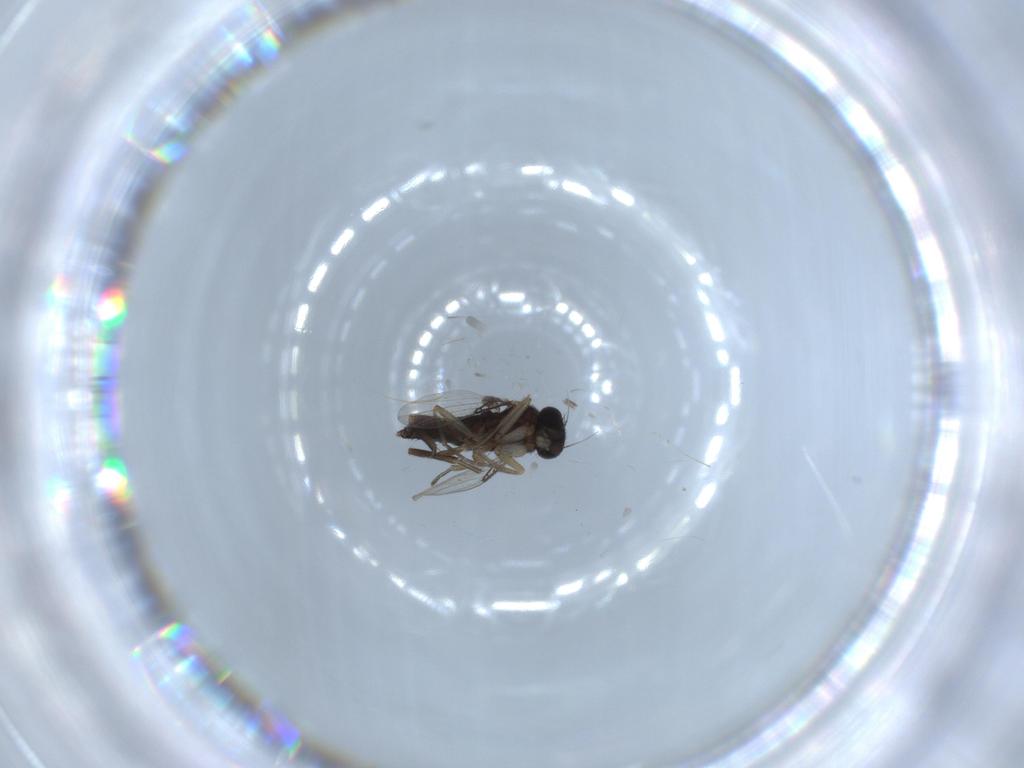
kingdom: Animalia
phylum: Arthropoda
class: Insecta
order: Diptera
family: Phoridae
